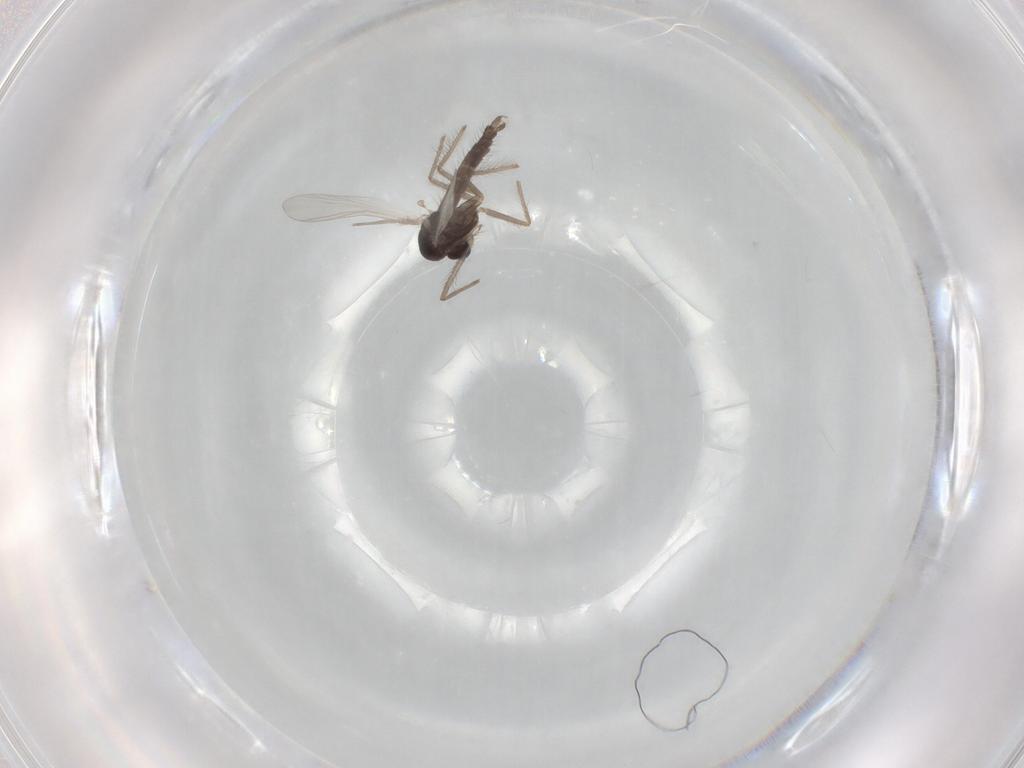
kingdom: Animalia
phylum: Arthropoda
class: Insecta
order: Diptera
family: Chironomidae
